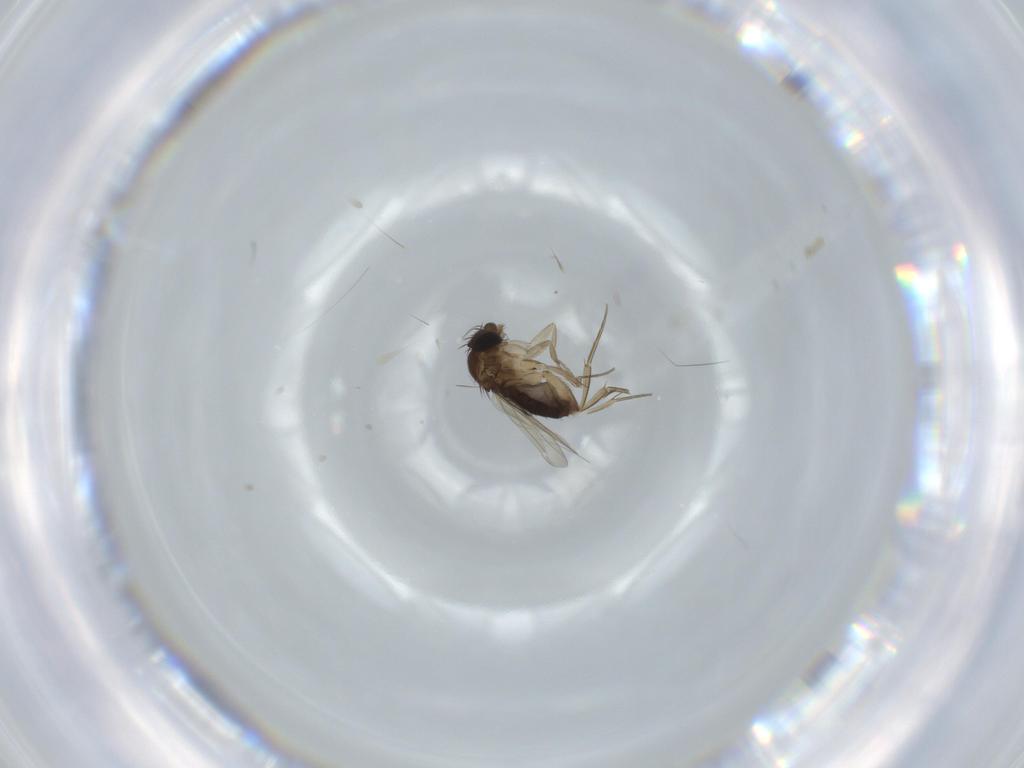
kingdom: Animalia
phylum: Arthropoda
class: Insecta
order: Diptera
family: Phoridae
